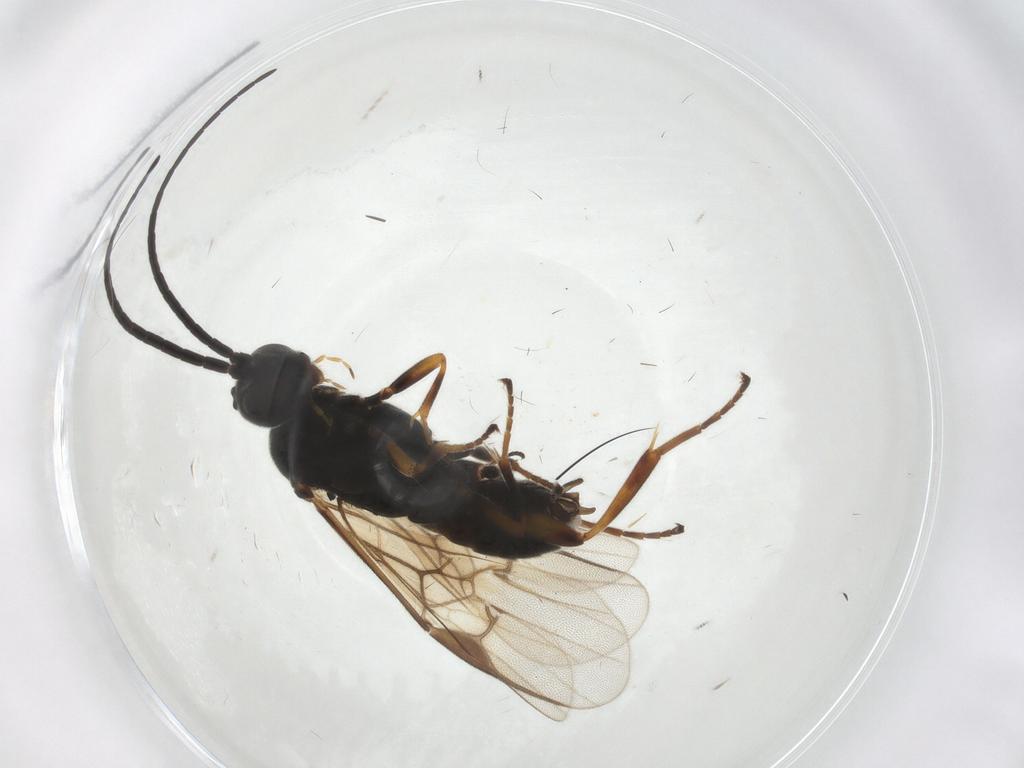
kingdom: Animalia
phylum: Arthropoda
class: Insecta
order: Hymenoptera
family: Braconidae
